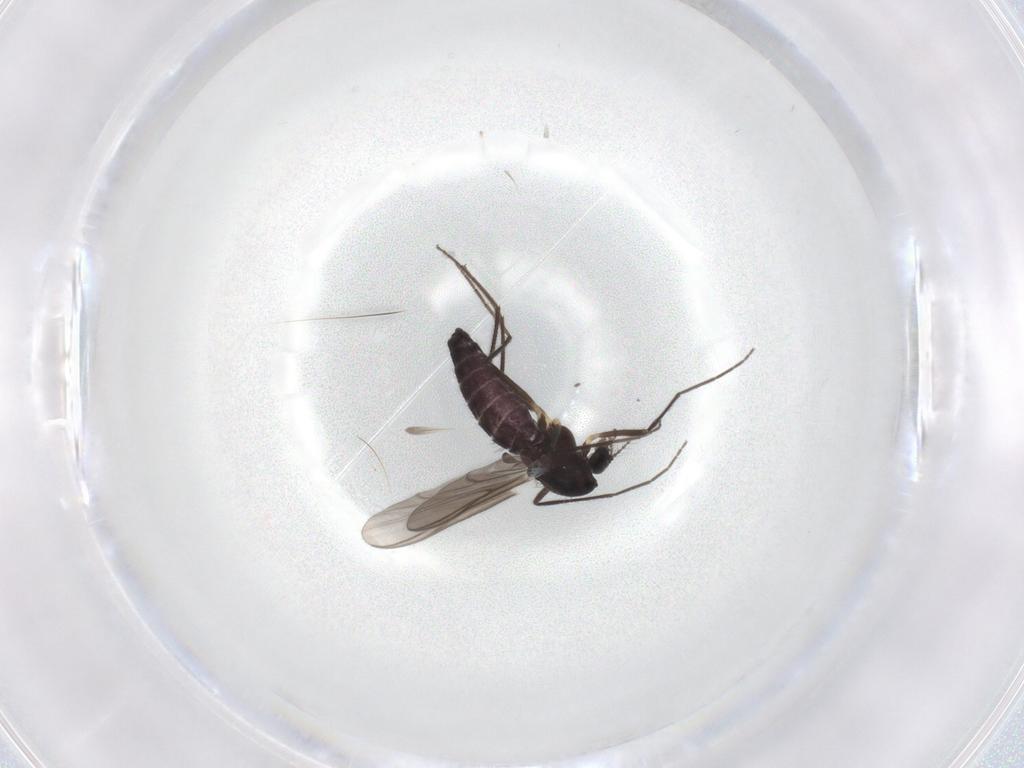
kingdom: Animalia
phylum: Arthropoda
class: Insecta
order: Diptera
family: Chironomidae
